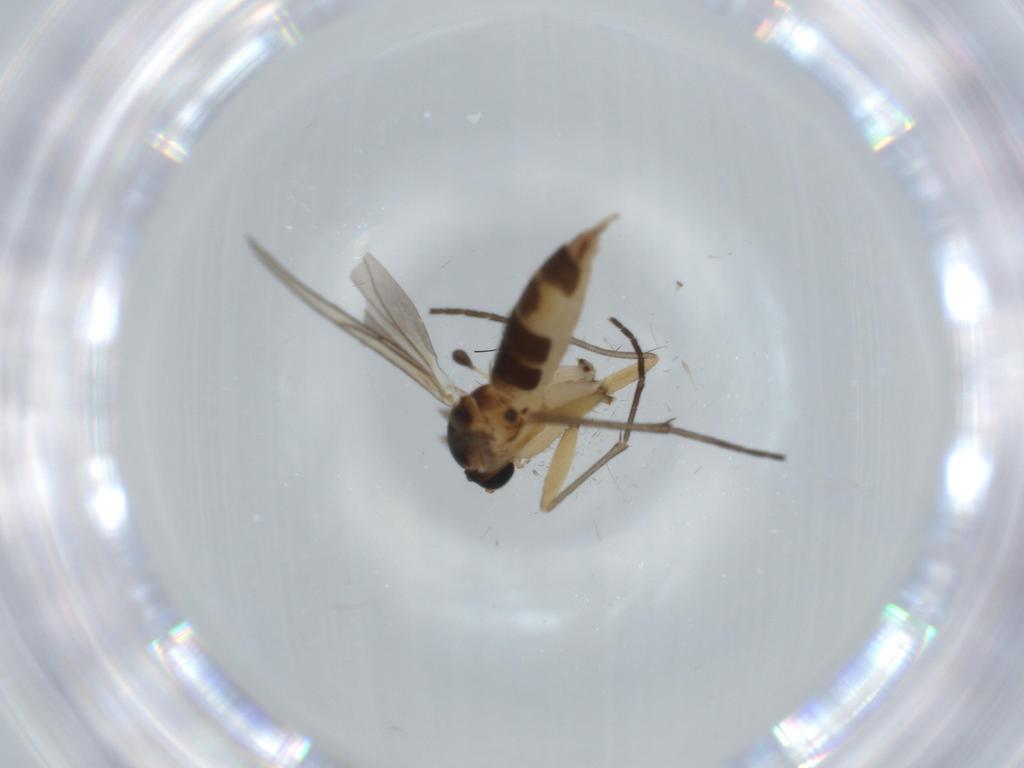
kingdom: Animalia
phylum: Arthropoda
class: Insecta
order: Diptera
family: Sciaridae
